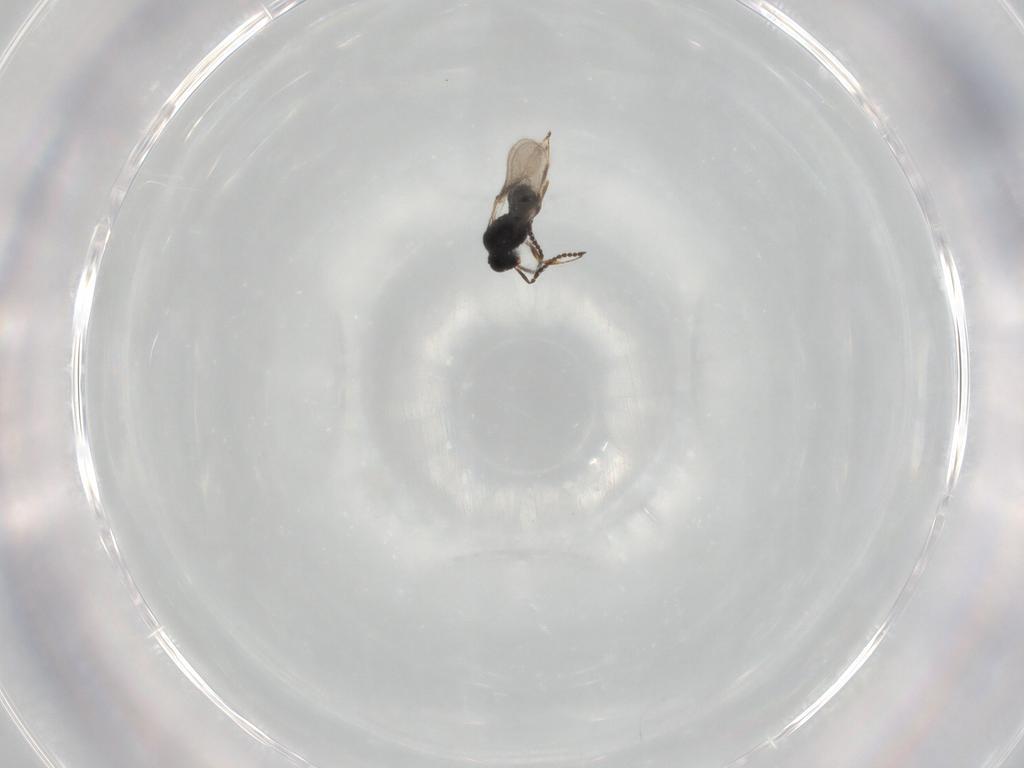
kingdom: Animalia
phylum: Arthropoda
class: Insecta
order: Hymenoptera
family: Scelionidae
